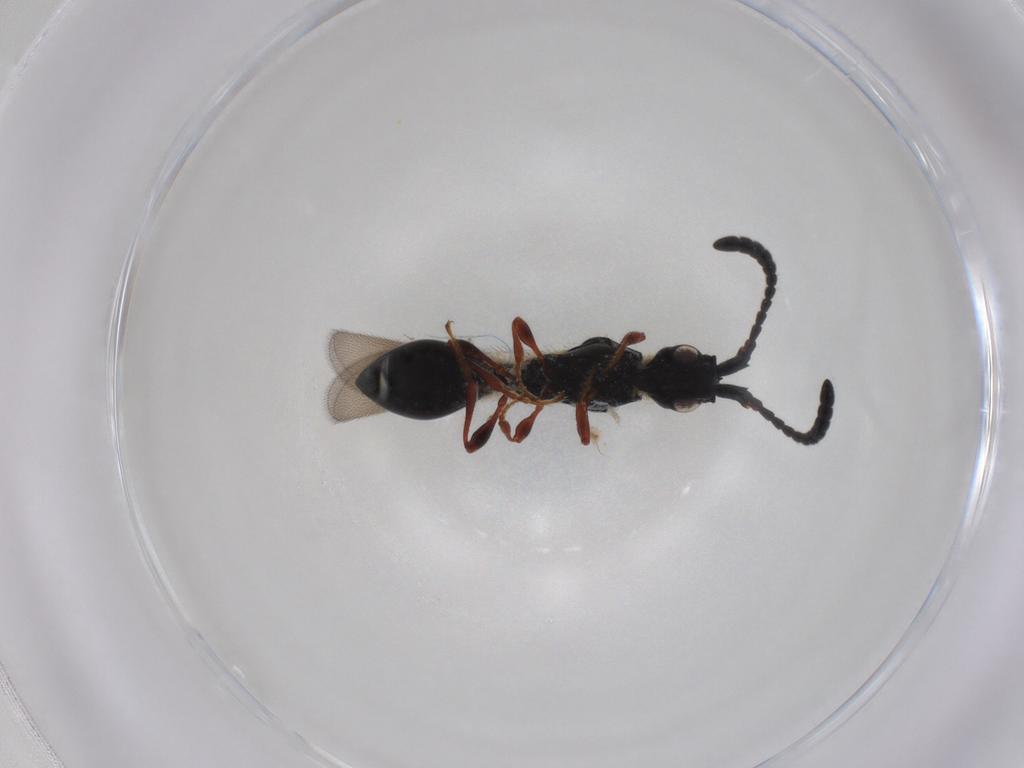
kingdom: Animalia
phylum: Arthropoda
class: Insecta
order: Hymenoptera
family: Diapriidae
